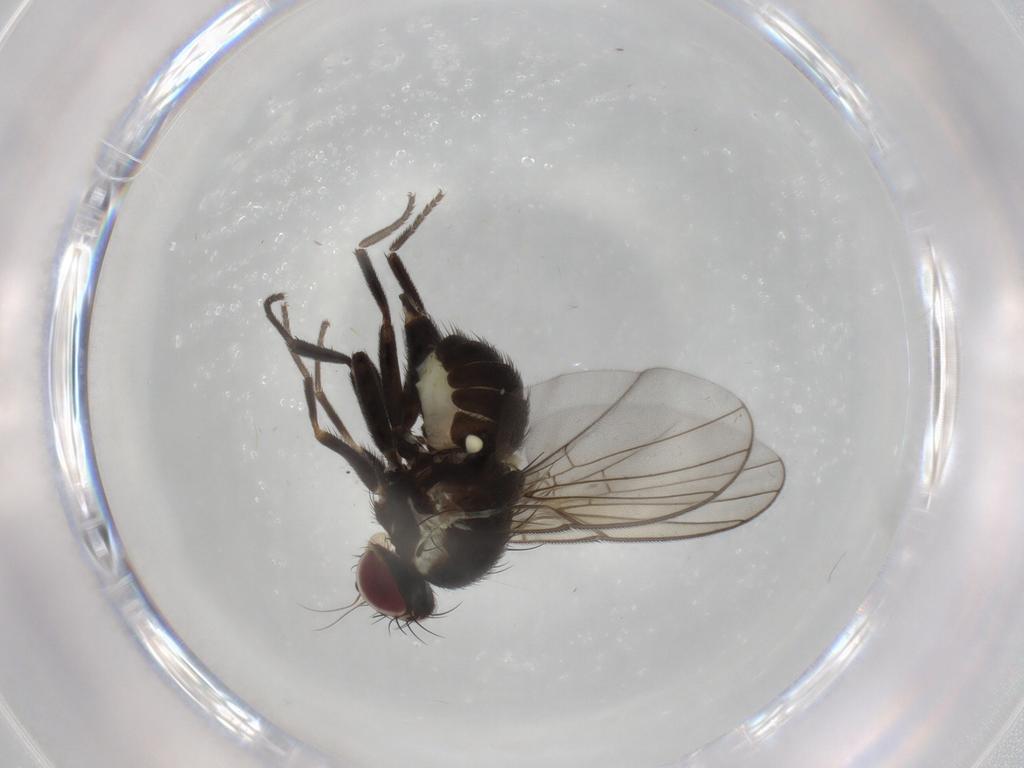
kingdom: Animalia
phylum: Arthropoda
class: Insecta
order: Diptera
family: Agromyzidae
